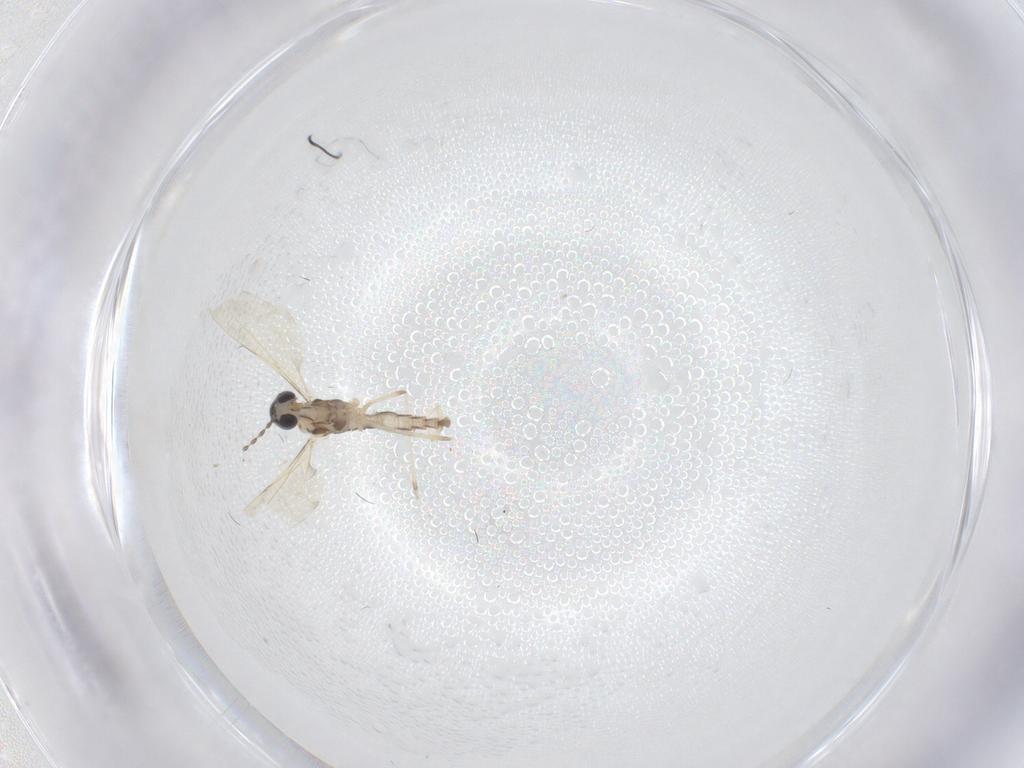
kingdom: Animalia
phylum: Arthropoda
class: Insecta
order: Diptera
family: Cecidomyiidae
